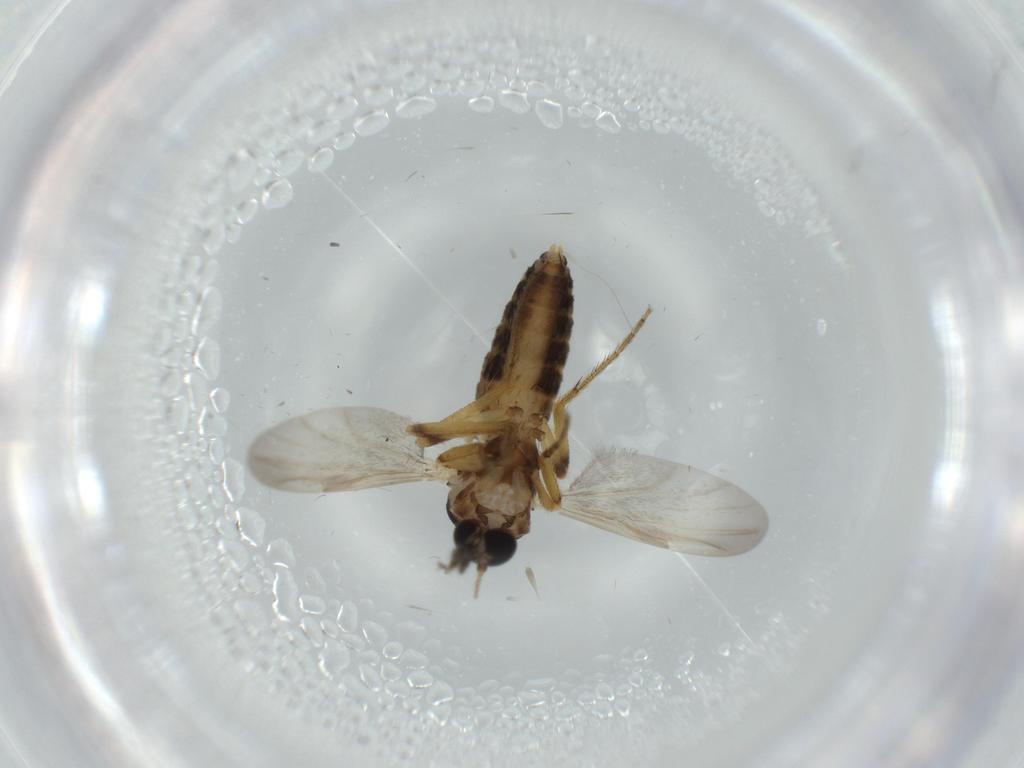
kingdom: Animalia
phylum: Arthropoda
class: Insecta
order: Diptera
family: Ceratopogonidae
